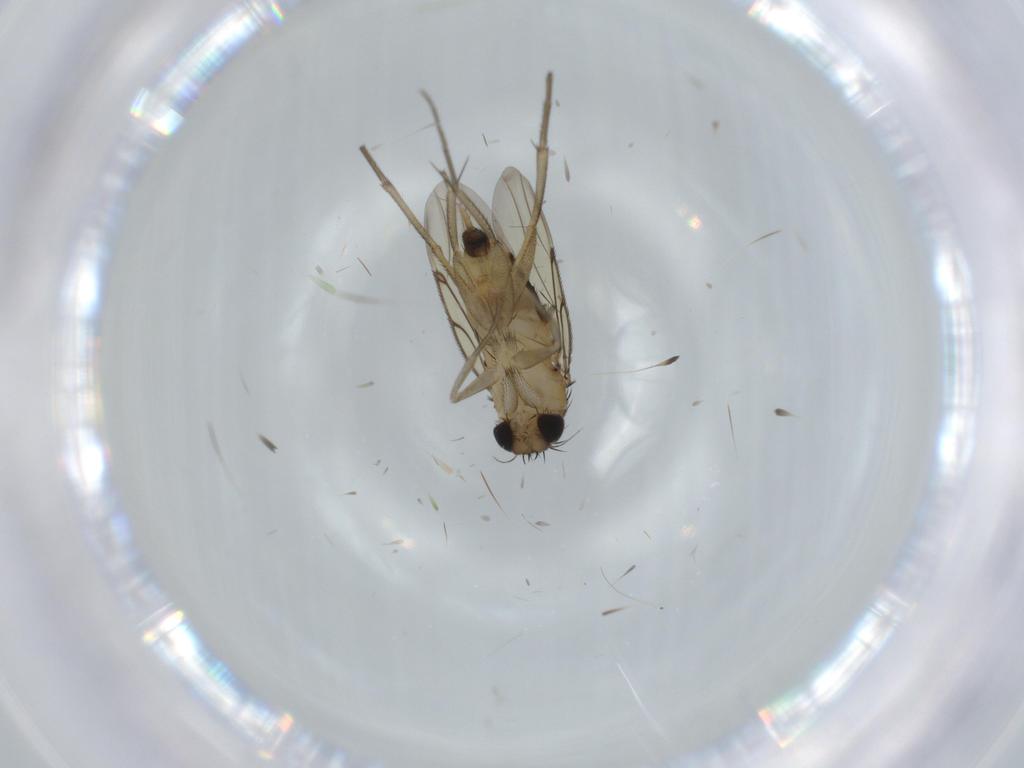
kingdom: Animalia
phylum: Arthropoda
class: Insecta
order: Diptera
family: Phoridae
